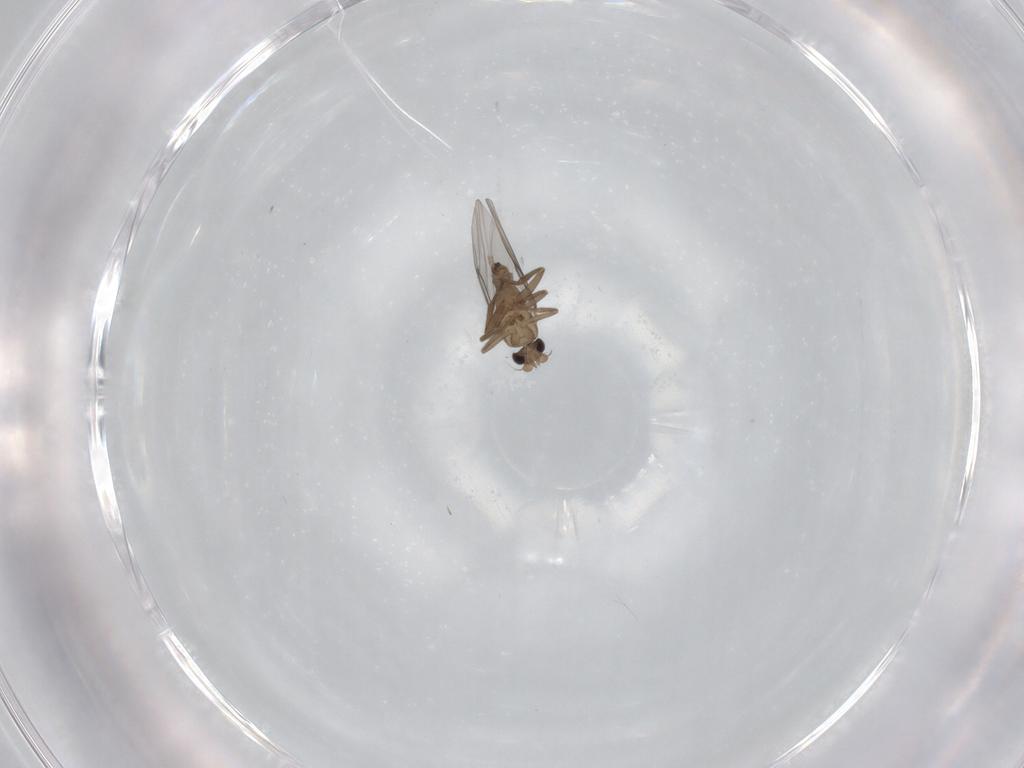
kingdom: Animalia
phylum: Arthropoda
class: Insecta
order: Diptera
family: Cecidomyiidae
